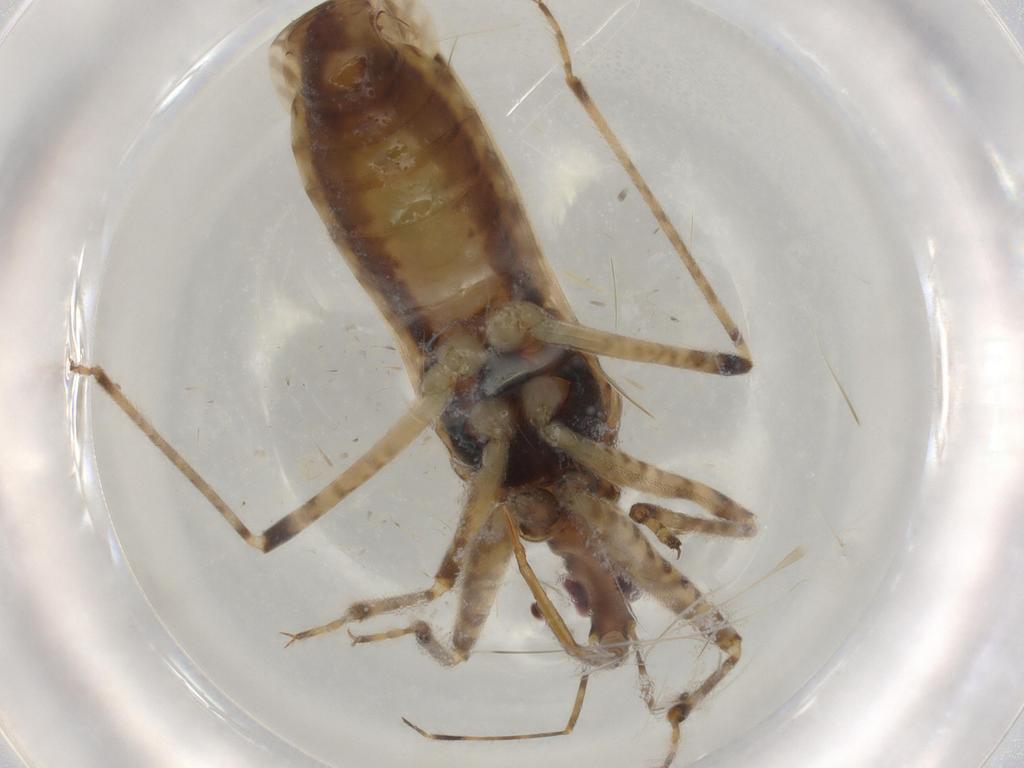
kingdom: Animalia
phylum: Arthropoda
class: Insecta
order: Hemiptera
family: Nabidae
